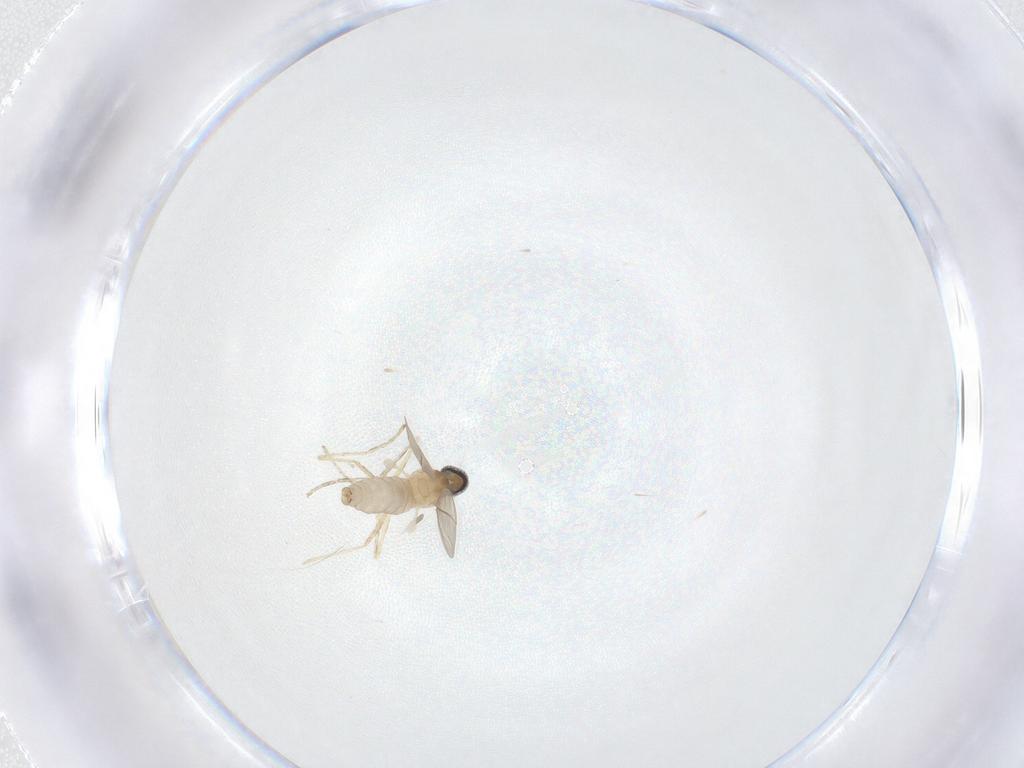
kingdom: Animalia
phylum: Arthropoda
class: Insecta
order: Diptera
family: Cecidomyiidae
